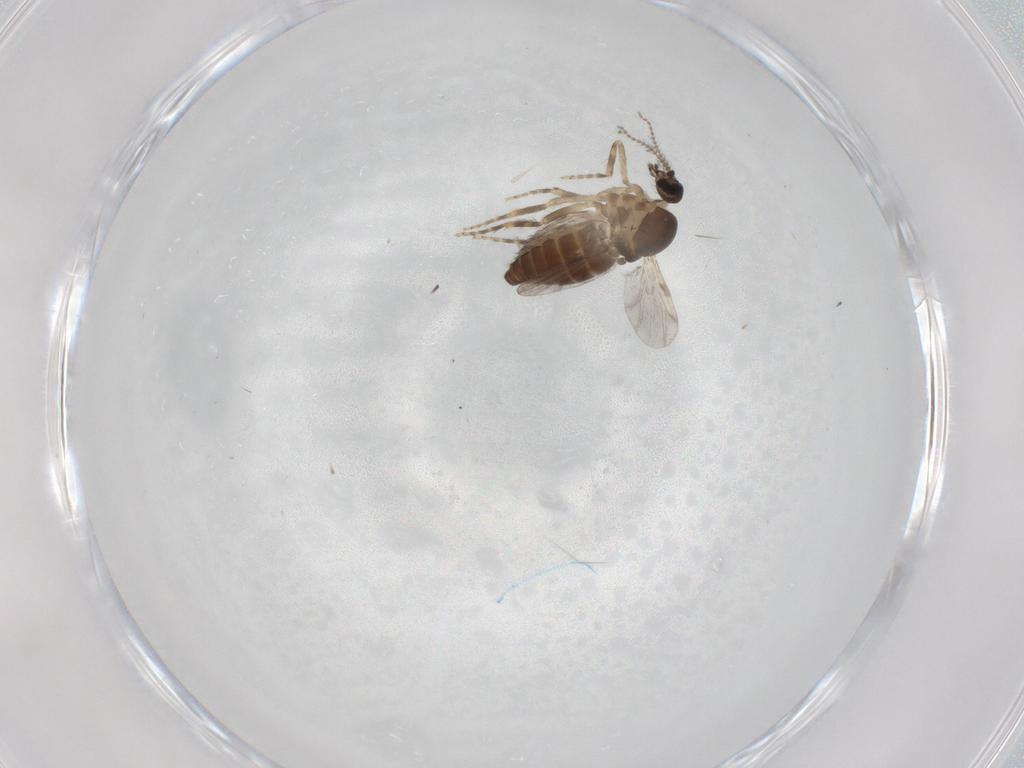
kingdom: Animalia
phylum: Arthropoda
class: Insecta
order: Diptera
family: Ceratopogonidae
